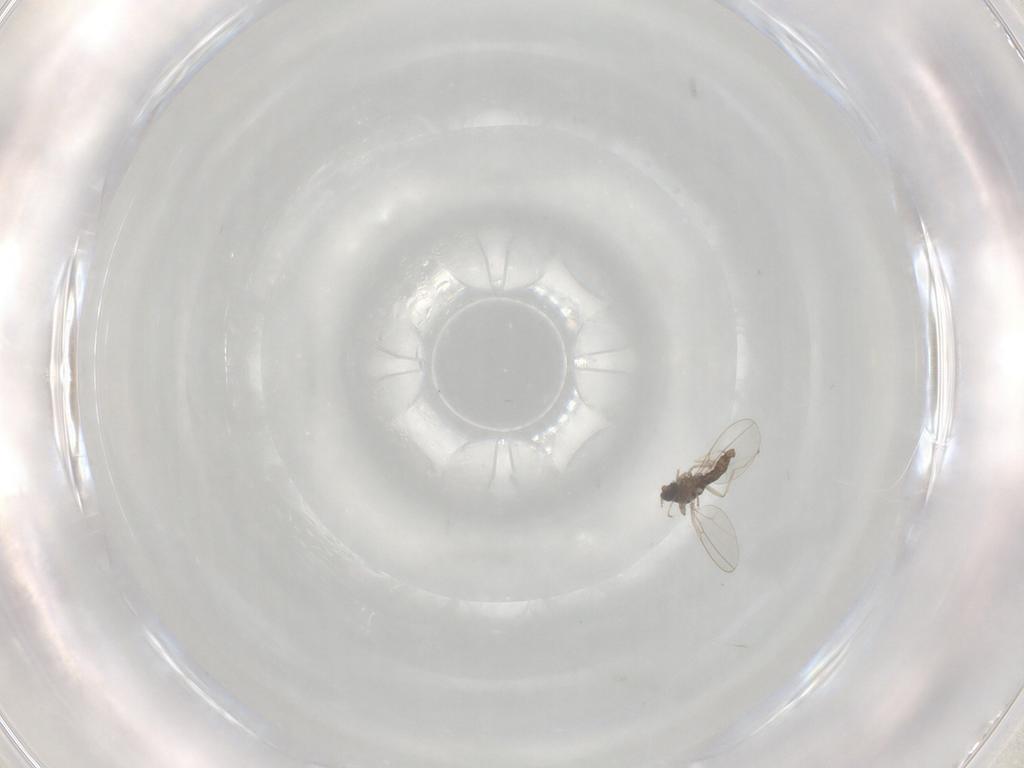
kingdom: Animalia
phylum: Arthropoda
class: Insecta
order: Diptera
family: Cecidomyiidae
